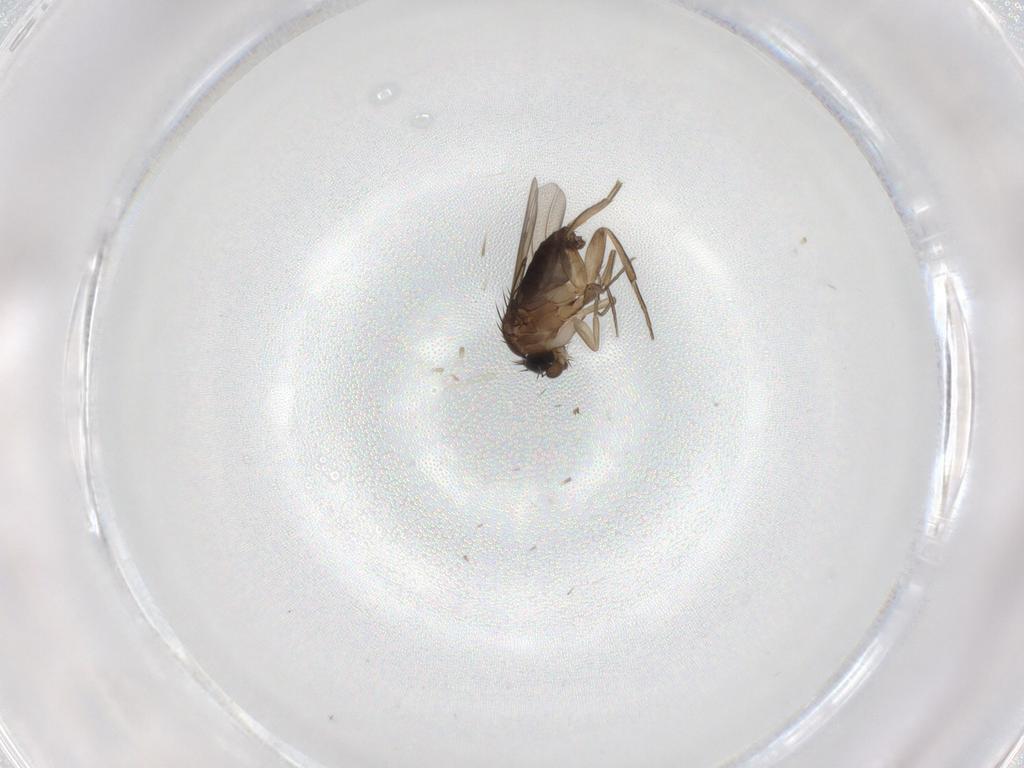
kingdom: Animalia
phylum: Arthropoda
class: Insecta
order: Diptera
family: Phoridae
